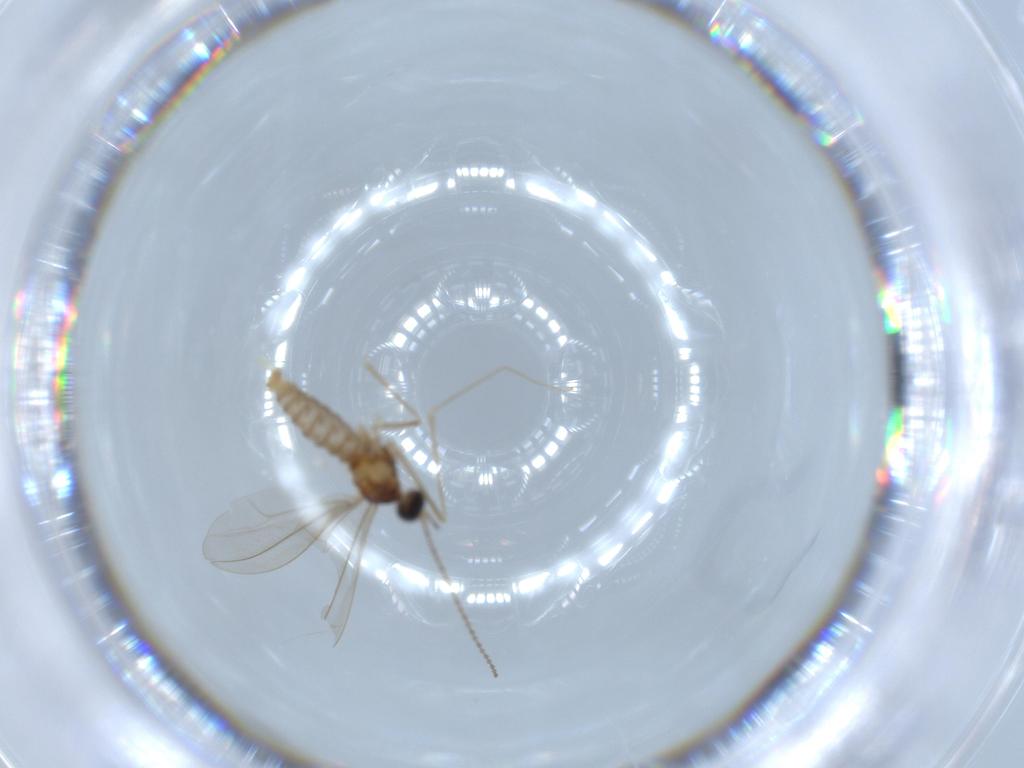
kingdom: Animalia
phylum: Arthropoda
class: Insecta
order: Diptera
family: Cecidomyiidae
